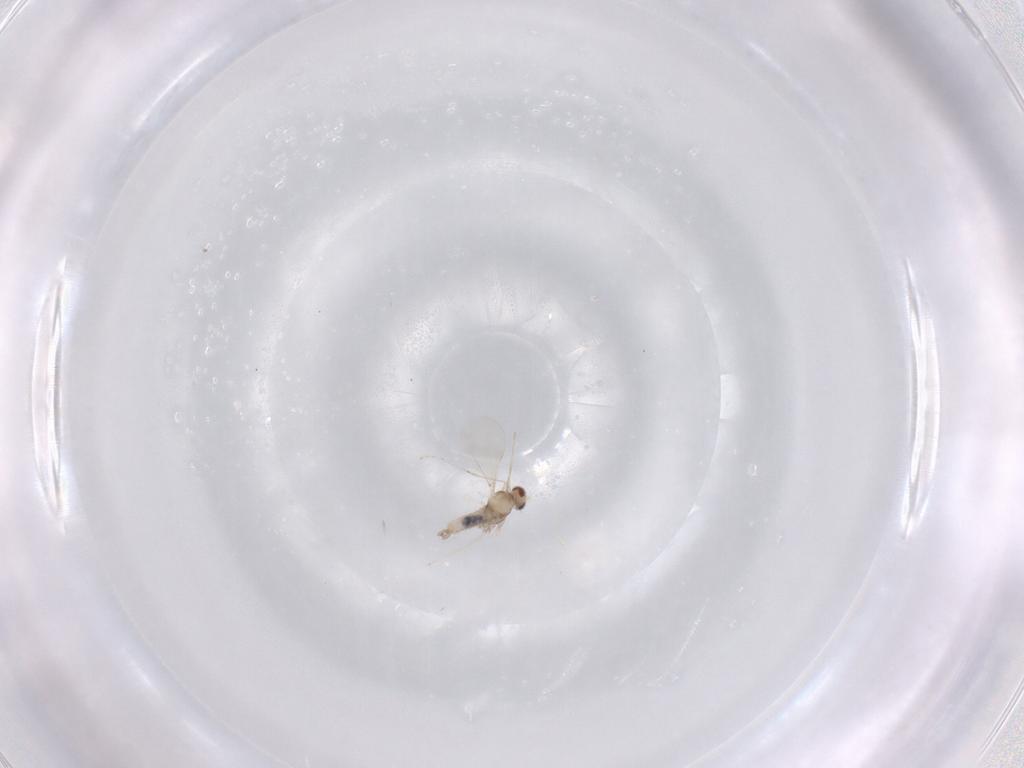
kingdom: Animalia
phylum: Arthropoda
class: Insecta
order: Diptera
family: Cecidomyiidae
